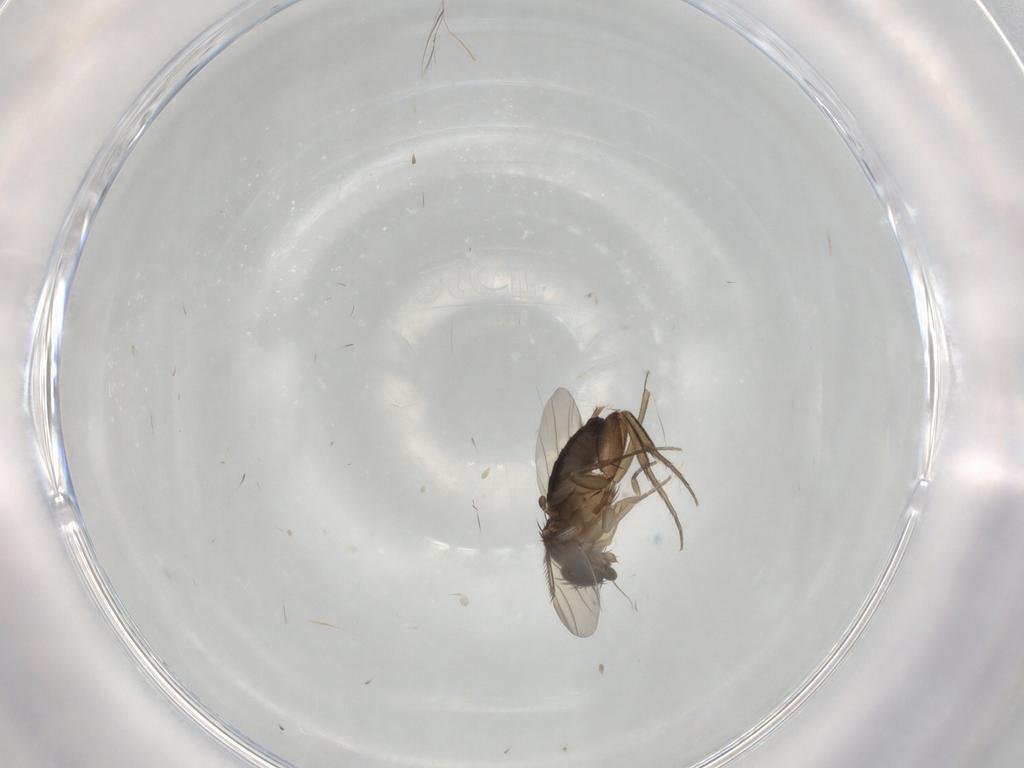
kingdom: Animalia
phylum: Arthropoda
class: Insecta
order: Diptera
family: Phoridae
